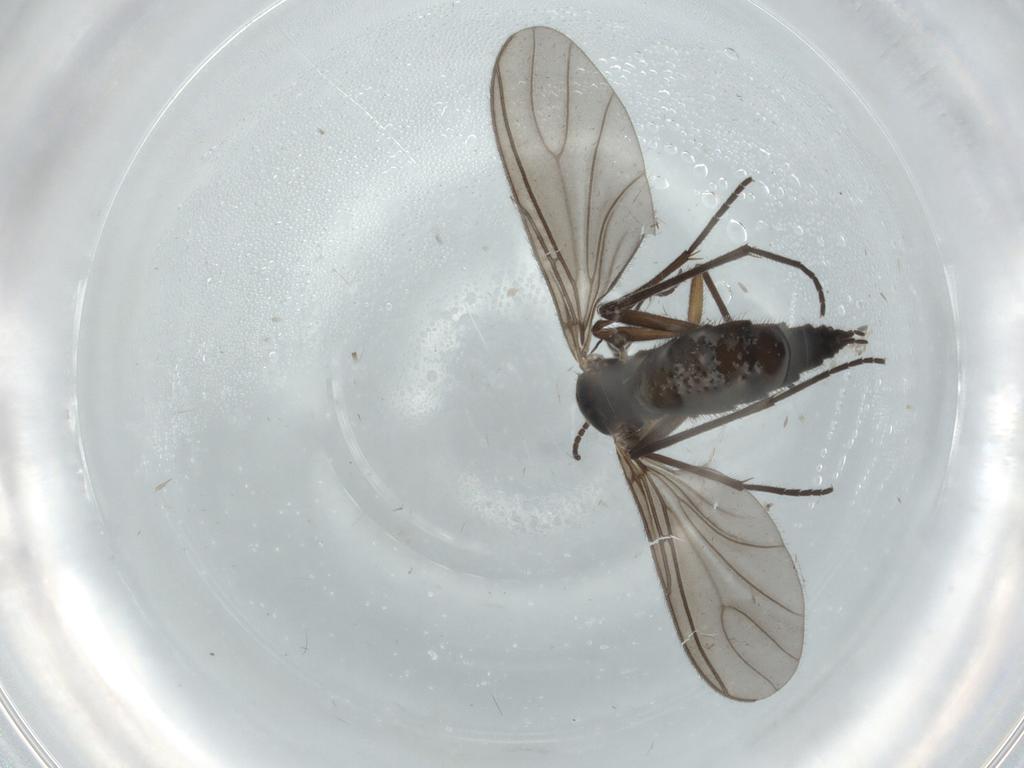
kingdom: Animalia
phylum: Arthropoda
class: Insecta
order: Diptera
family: Sciaridae
